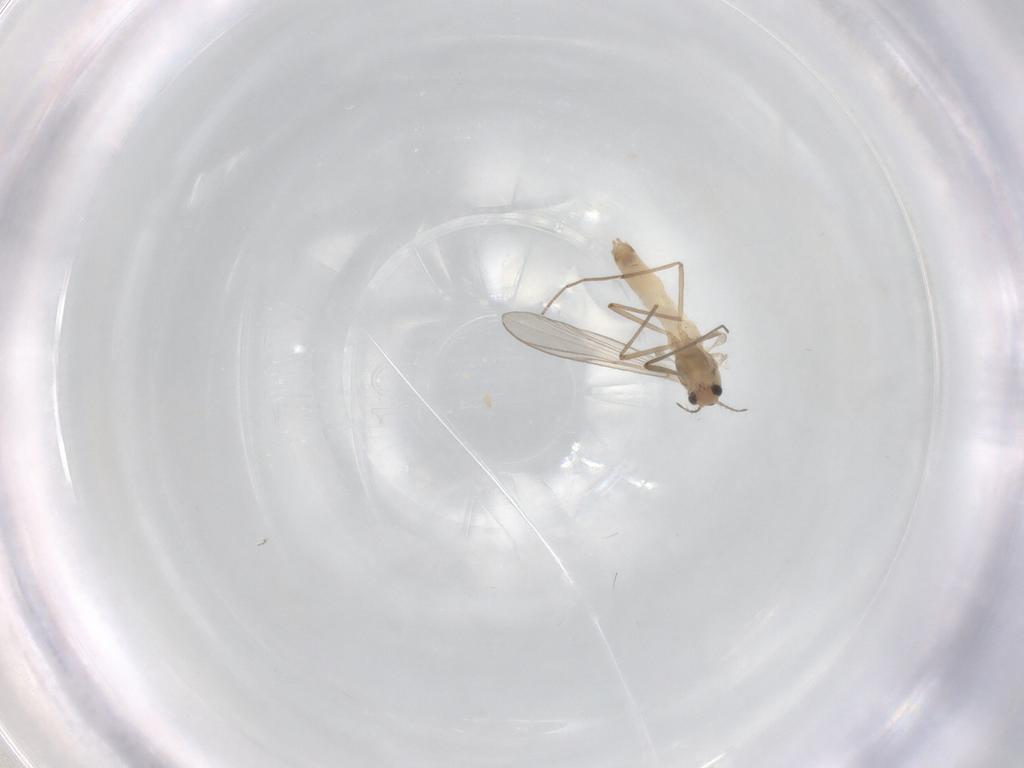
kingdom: Animalia
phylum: Arthropoda
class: Insecta
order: Diptera
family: Chironomidae
